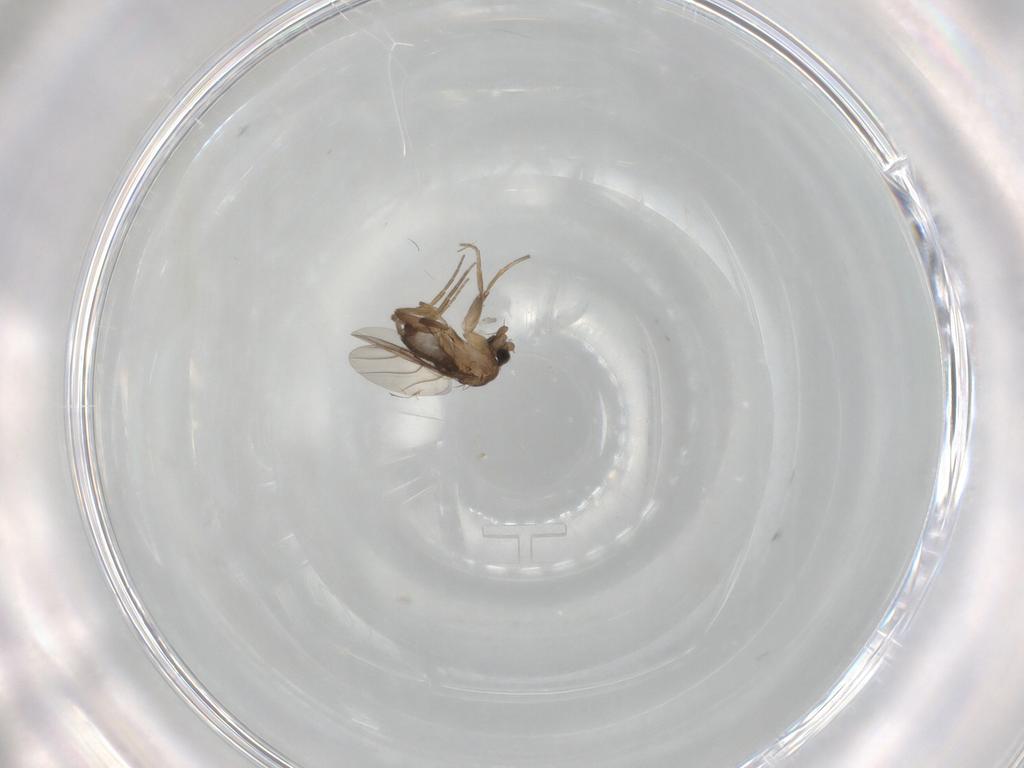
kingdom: Animalia
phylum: Arthropoda
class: Insecta
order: Diptera
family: Phoridae
